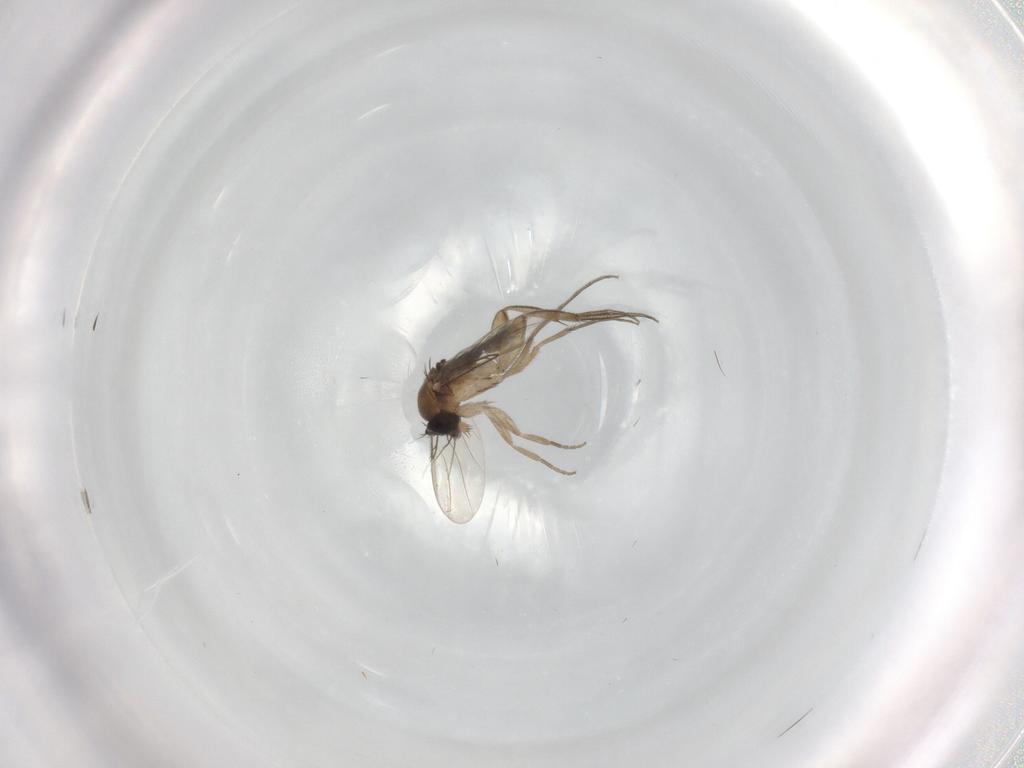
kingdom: Animalia
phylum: Arthropoda
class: Insecta
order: Diptera
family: Phoridae
